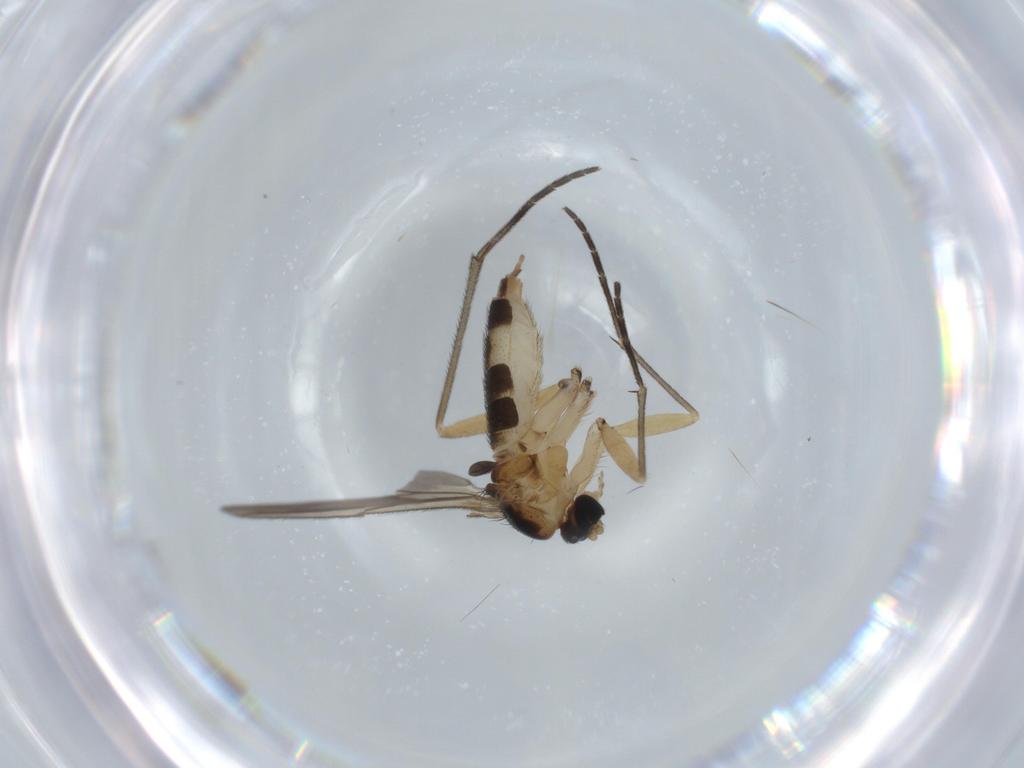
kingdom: Animalia
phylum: Arthropoda
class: Insecta
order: Diptera
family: Sciaridae
